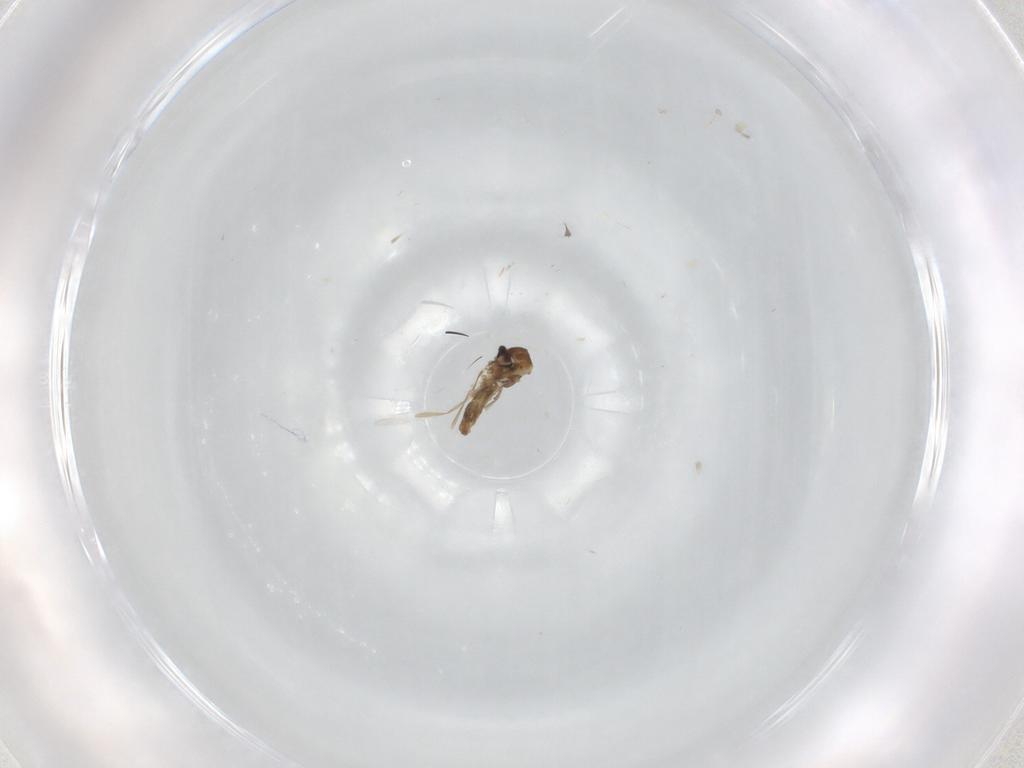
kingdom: Animalia
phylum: Arthropoda
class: Insecta
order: Diptera
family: Cecidomyiidae
